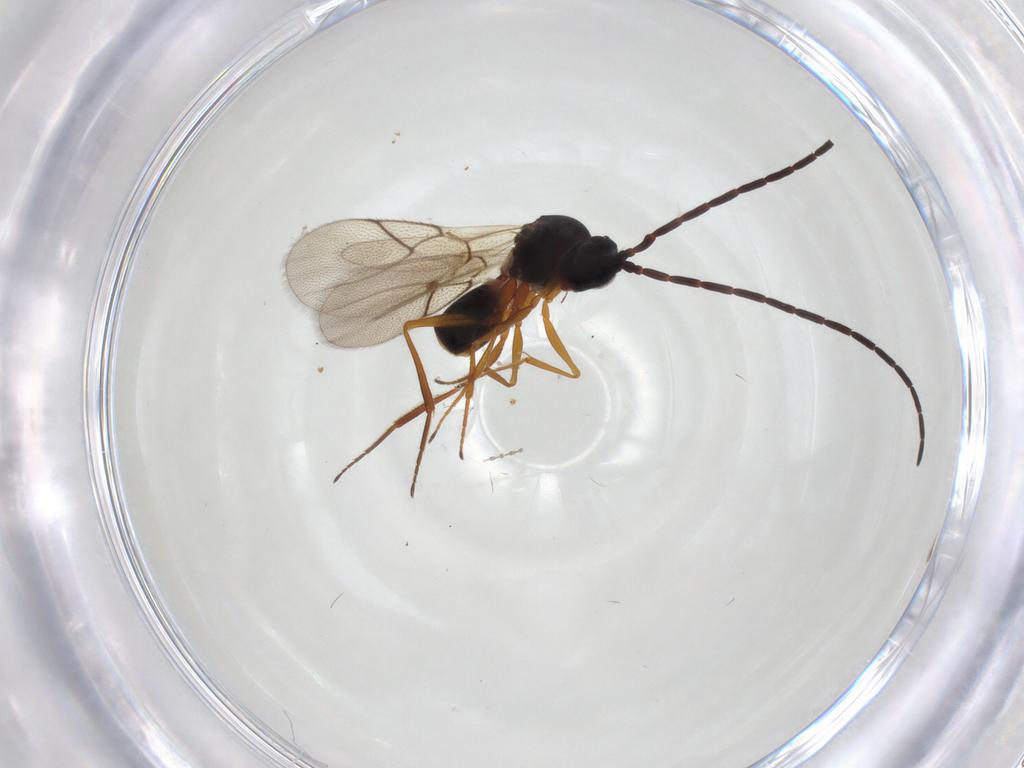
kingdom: Animalia
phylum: Arthropoda
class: Insecta
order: Hymenoptera
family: Figitidae
